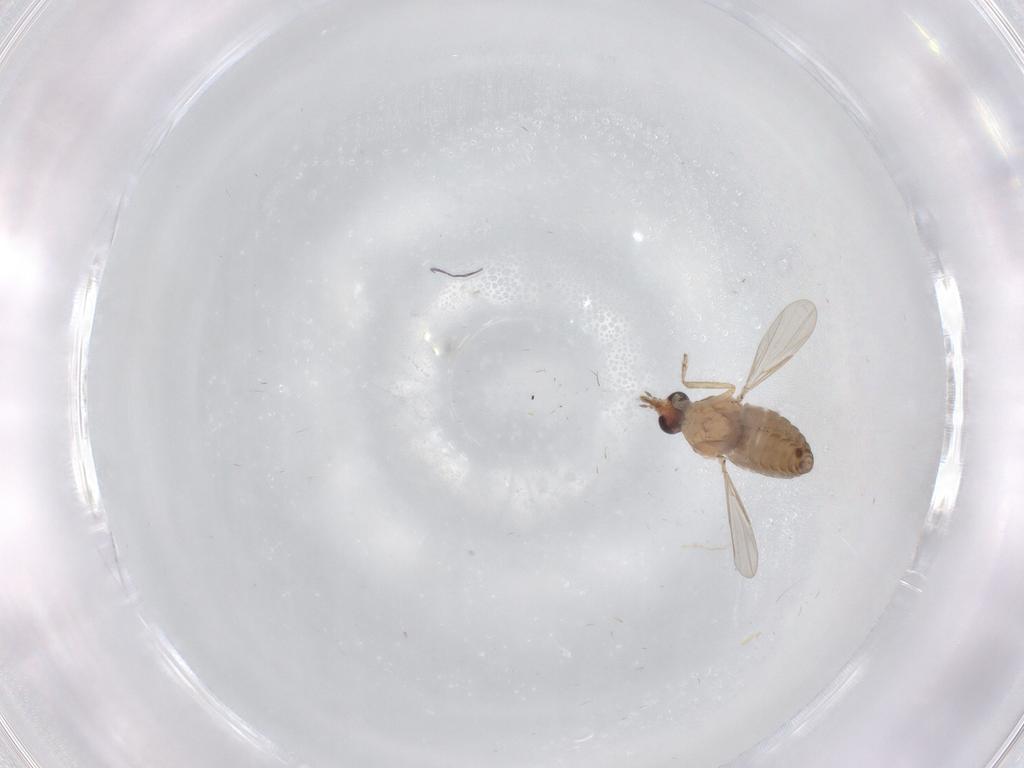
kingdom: Animalia
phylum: Arthropoda
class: Insecta
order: Diptera
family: Ceratopogonidae
